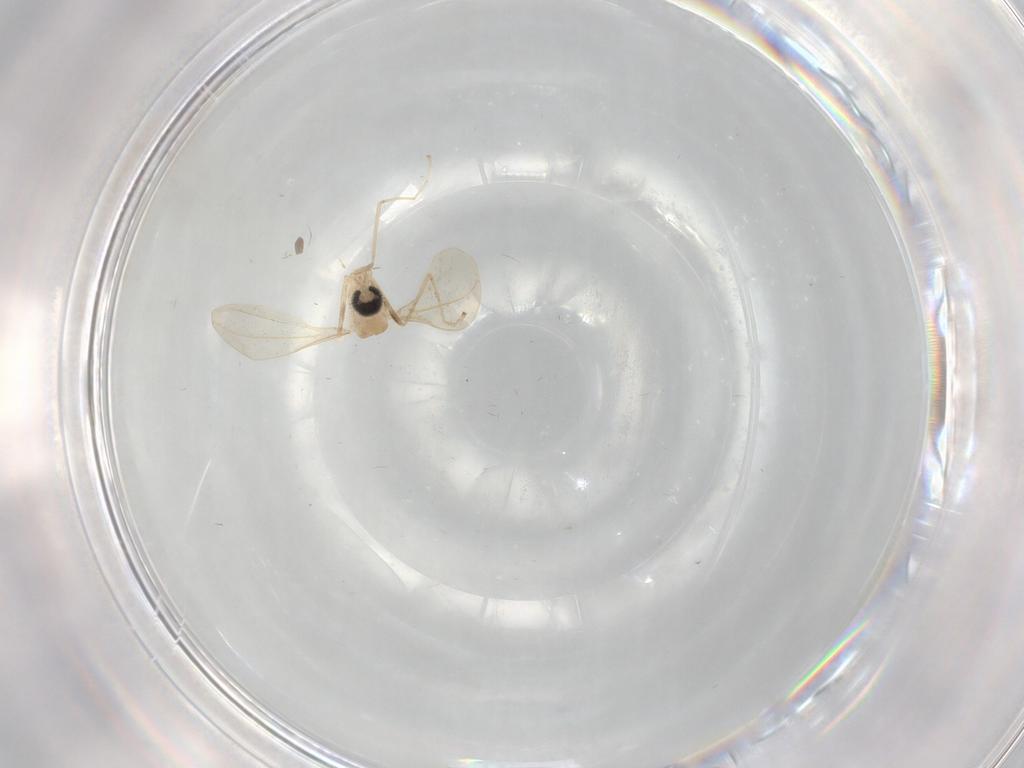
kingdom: Animalia
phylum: Arthropoda
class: Insecta
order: Diptera
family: Cecidomyiidae
